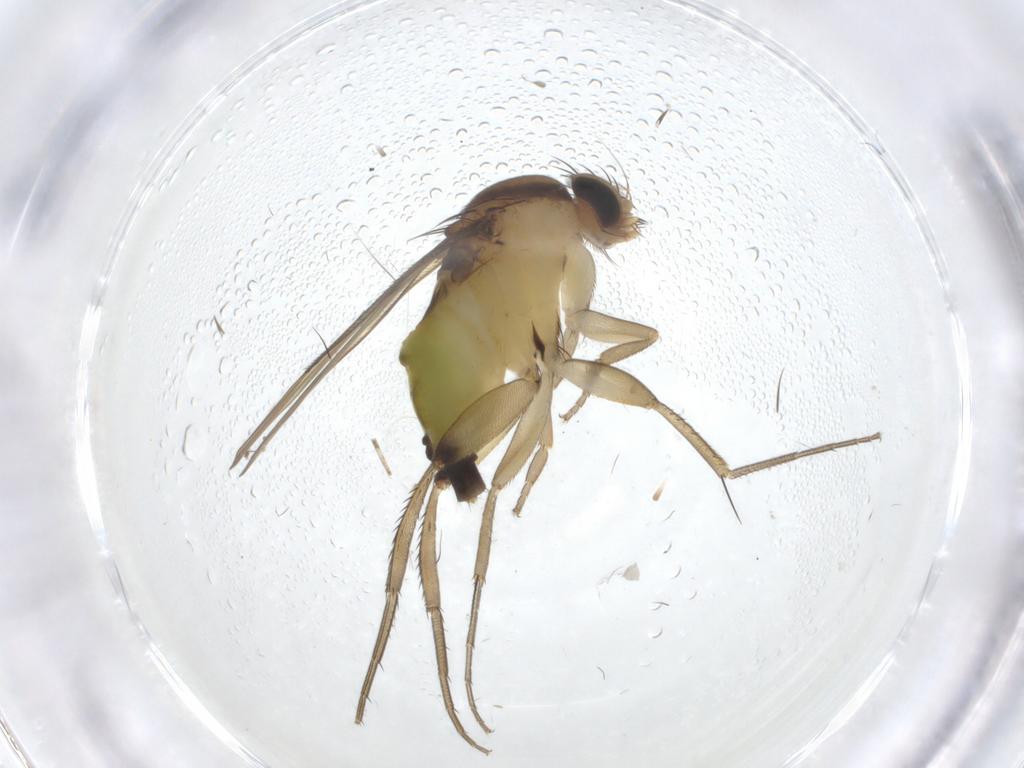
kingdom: Animalia
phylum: Arthropoda
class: Insecta
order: Diptera
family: Phoridae
